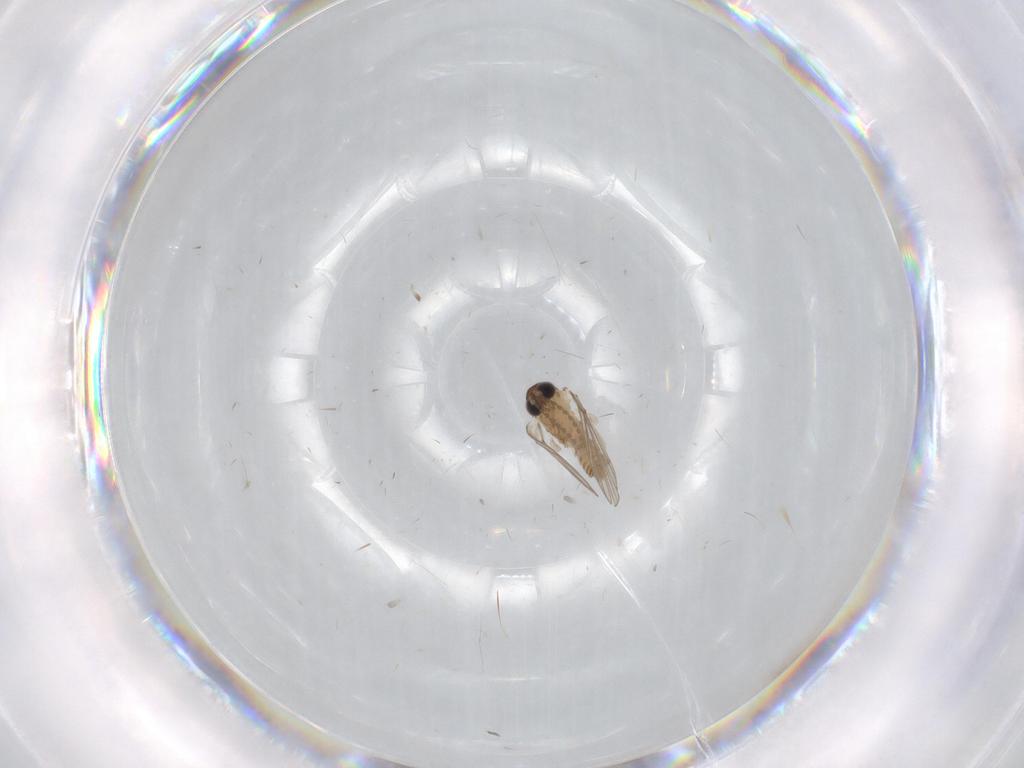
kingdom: Animalia
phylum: Arthropoda
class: Insecta
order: Diptera
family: Psychodidae
